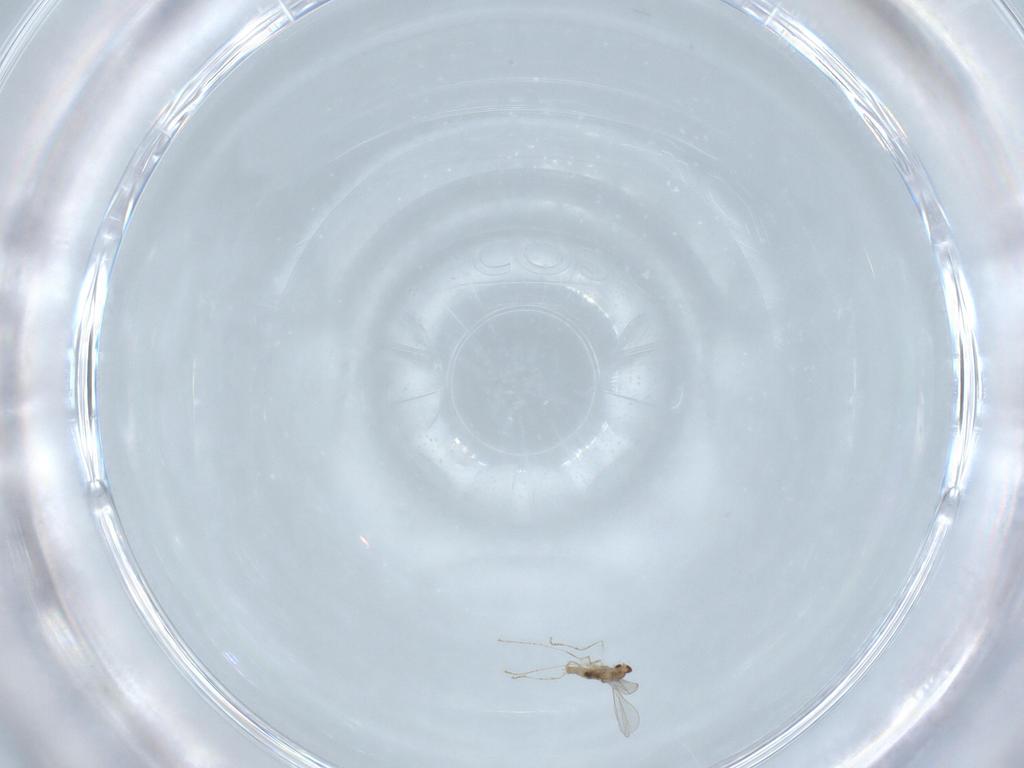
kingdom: Animalia
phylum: Arthropoda
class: Insecta
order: Diptera
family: Cecidomyiidae
